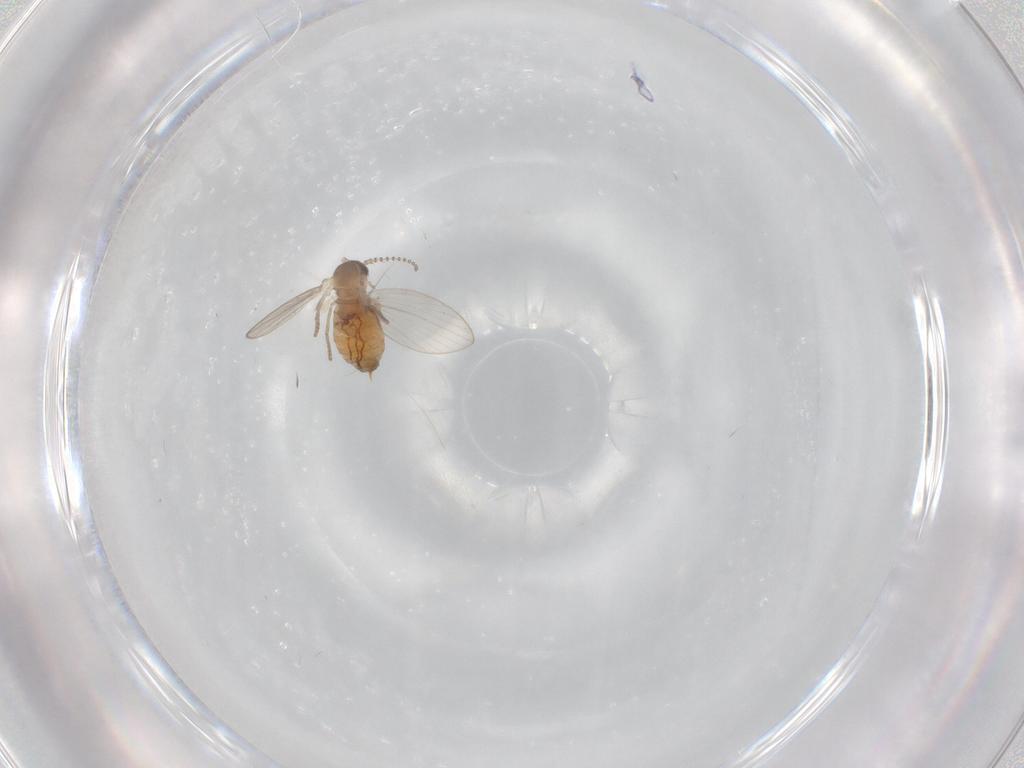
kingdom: Animalia
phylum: Arthropoda
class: Insecta
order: Diptera
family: Psychodidae
